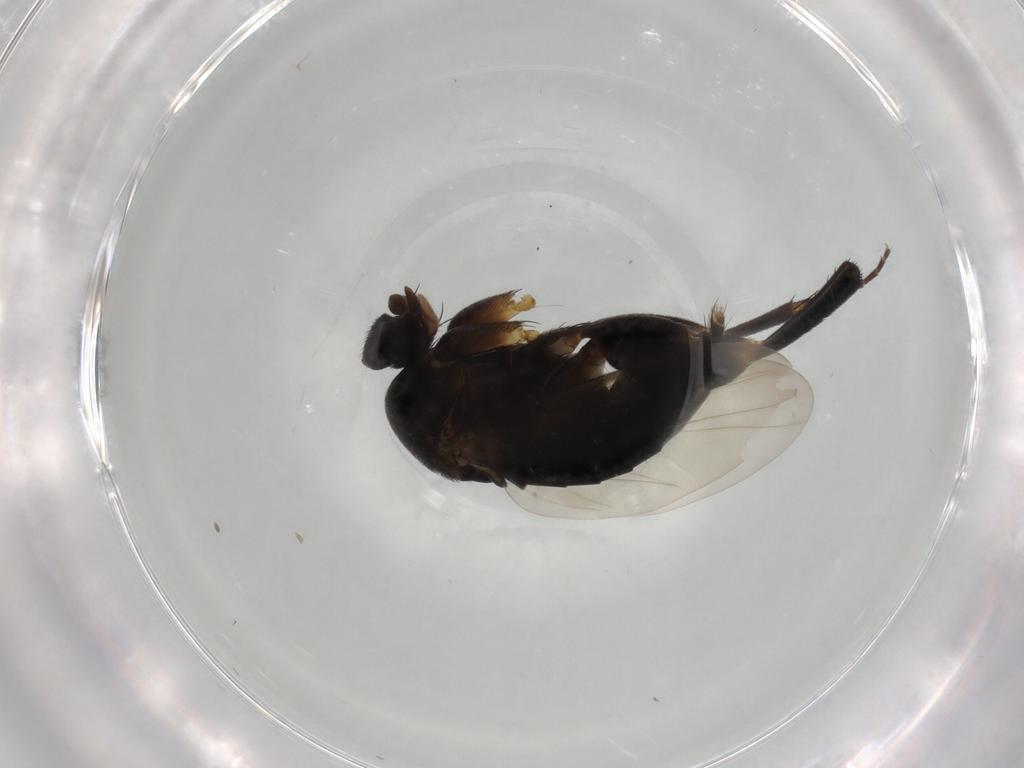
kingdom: Animalia
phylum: Arthropoda
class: Insecta
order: Diptera
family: Phoridae
